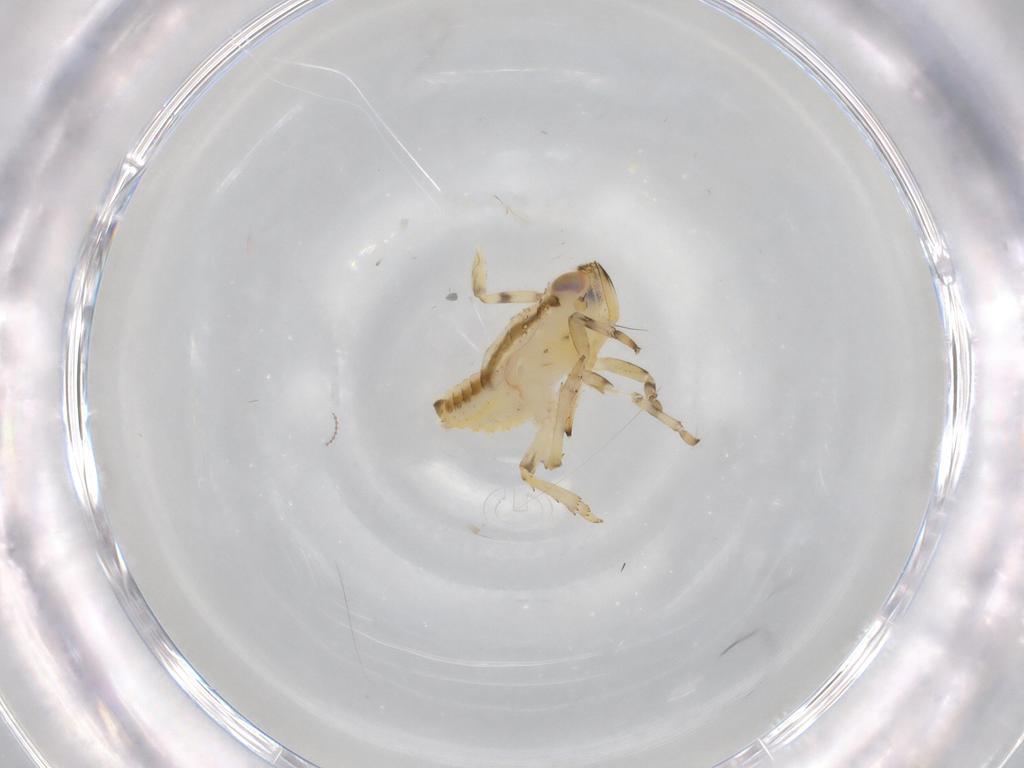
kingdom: Animalia
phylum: Arthropoda
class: Insecta
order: Hemiptera
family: Issidae
